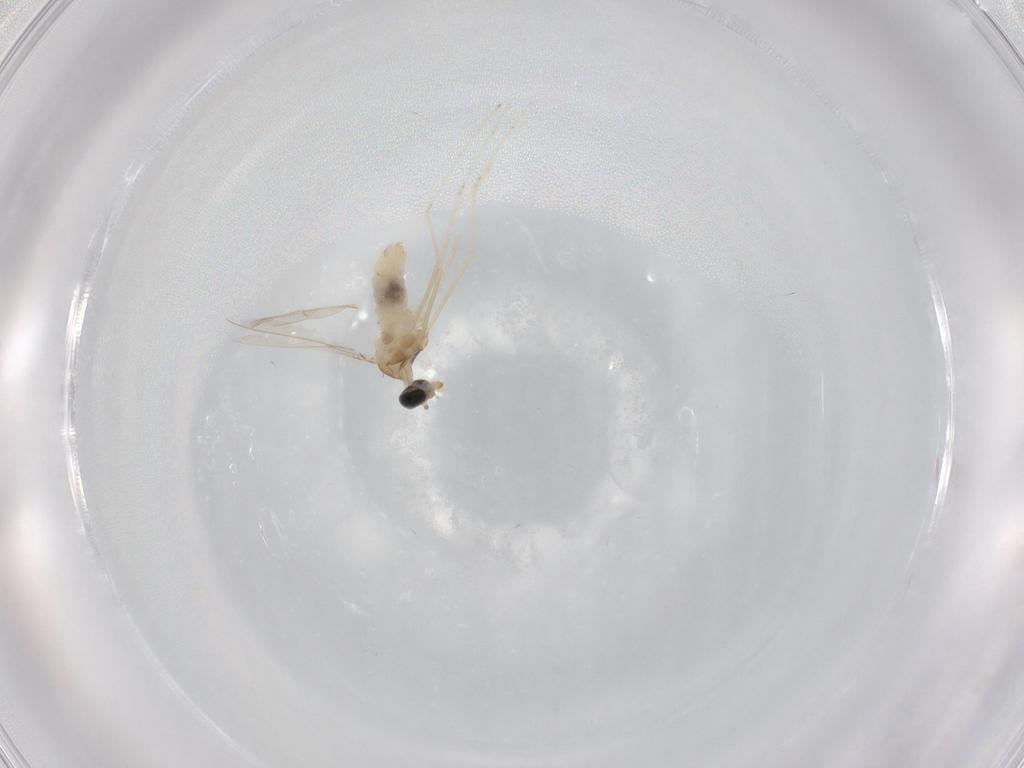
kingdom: Animalia
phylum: Arthropoda
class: Insecta
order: Diptera
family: Cecidomyiidae
